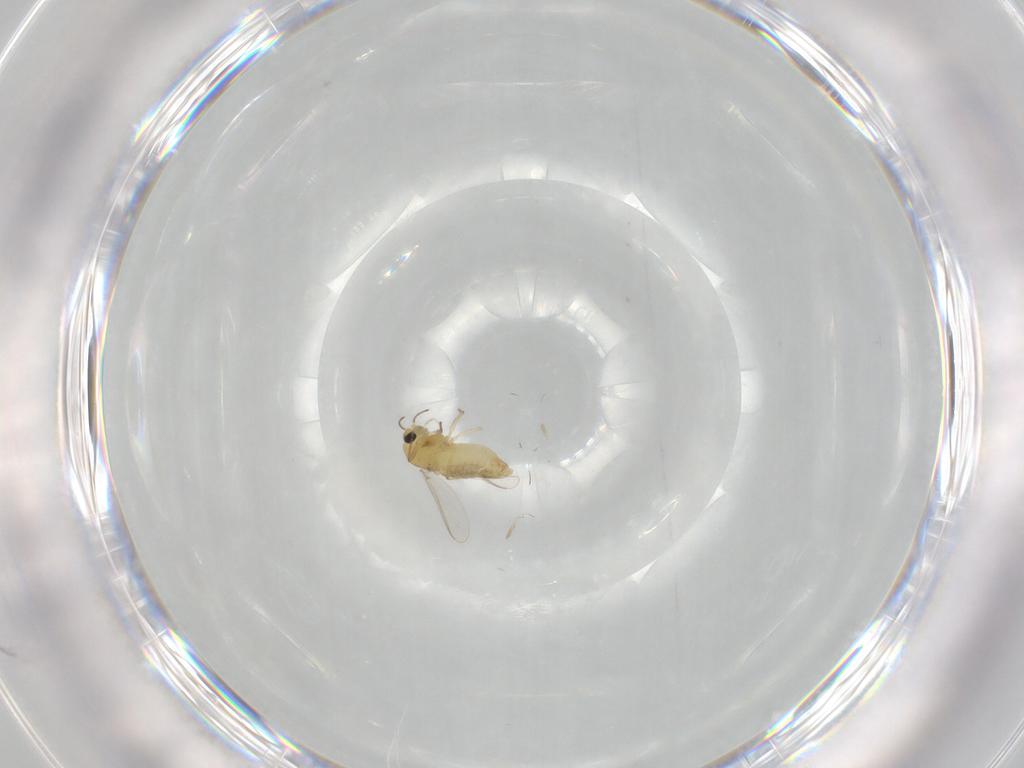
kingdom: Animalia
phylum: Arthropoda
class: Insecta
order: Diptera
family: Chironomidae
